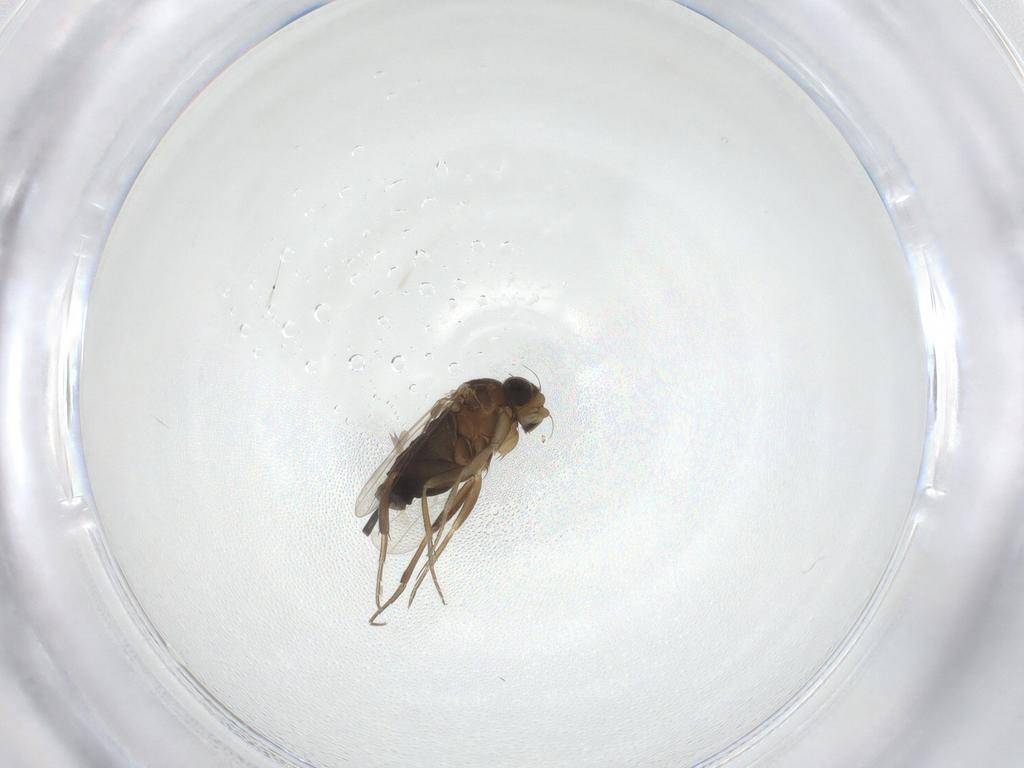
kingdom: Animalia
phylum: Arthropoda
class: Insecta
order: Diptera
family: Phoridae
